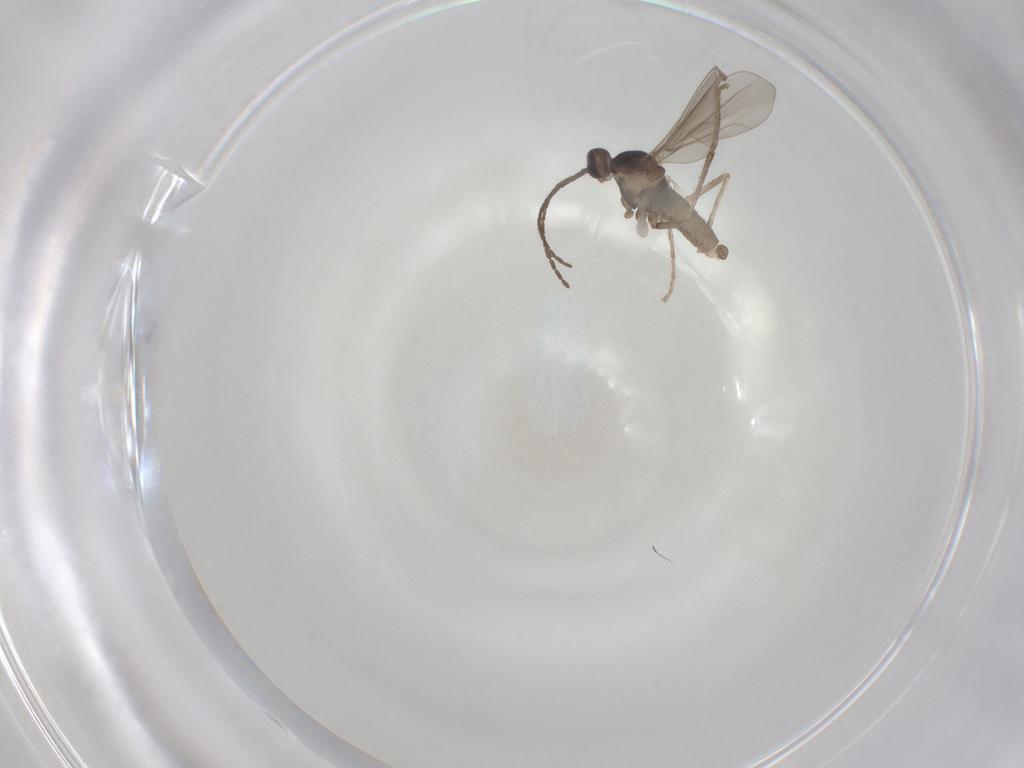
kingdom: Animalia
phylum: Arthropoda
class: Insecta
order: Diptera
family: Cecidomyiidae
